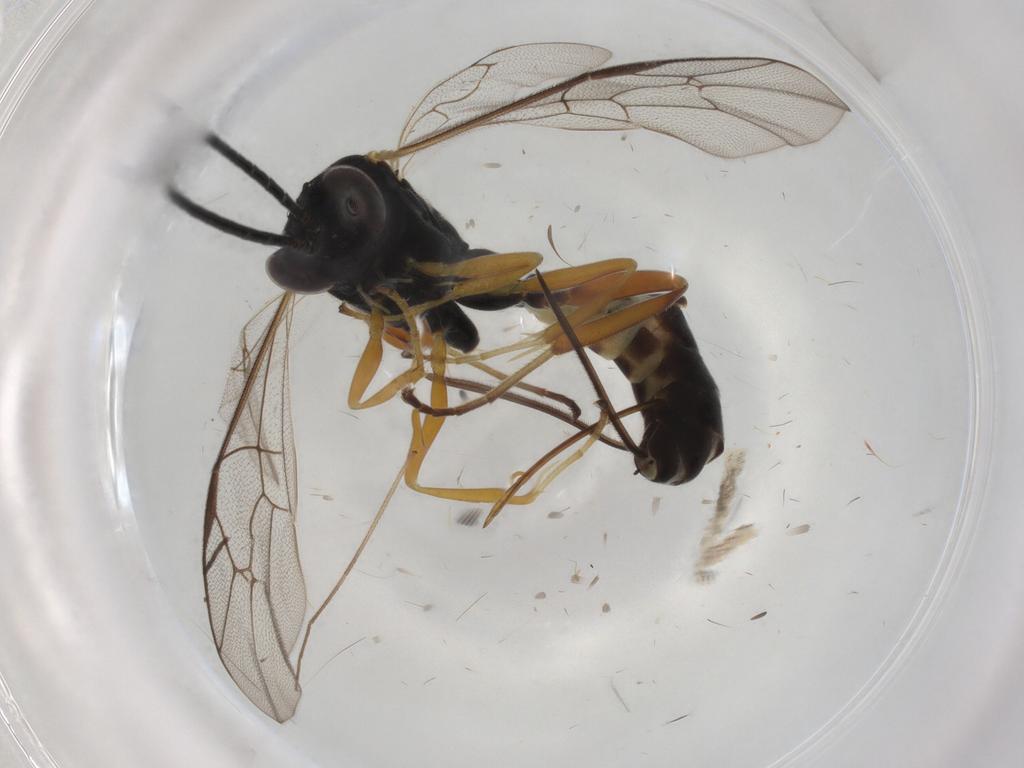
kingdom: Animalia
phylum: Arthropoda
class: Insecta
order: Hymenoptera
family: Ichneumonidae
